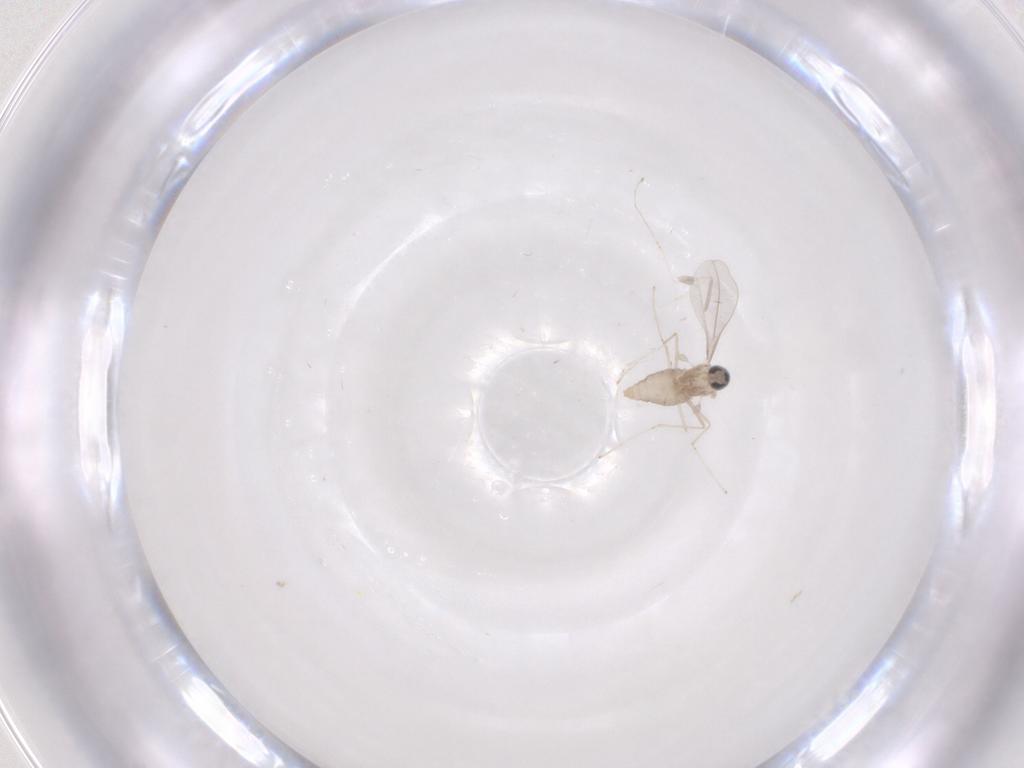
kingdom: Animalia
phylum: Arthropoda
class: Insecta
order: Diptera
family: Cecidomyiidae
